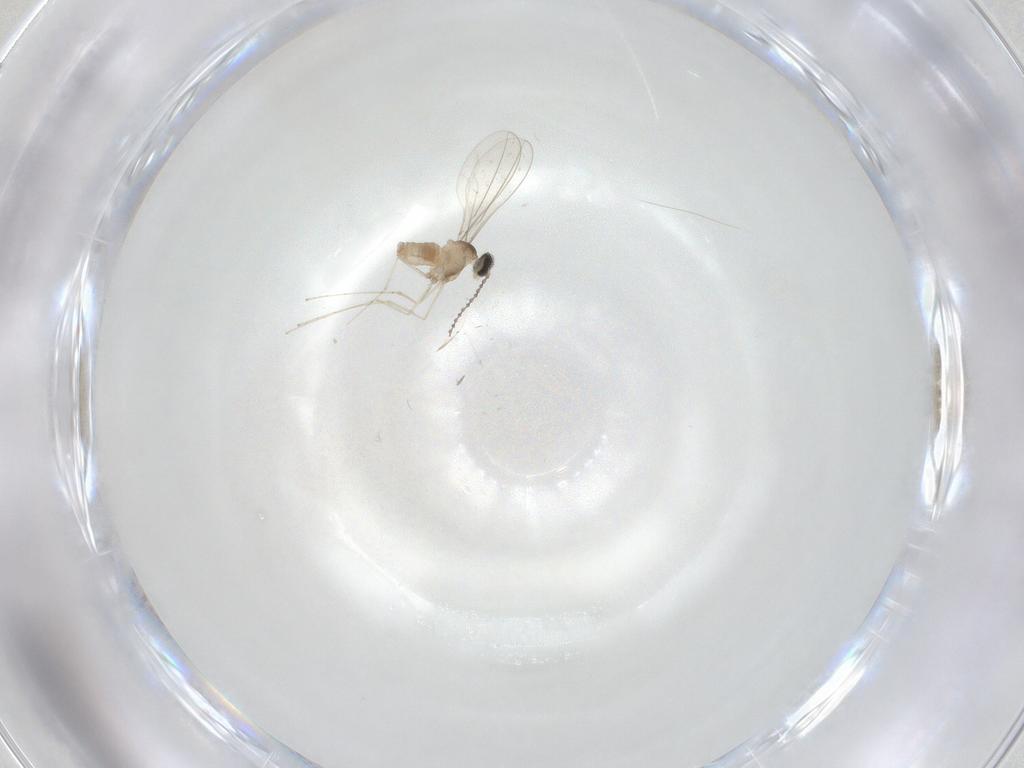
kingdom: Animalia
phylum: Arthropoda
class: Insecta
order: Diptera
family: Cecidomyiidae
